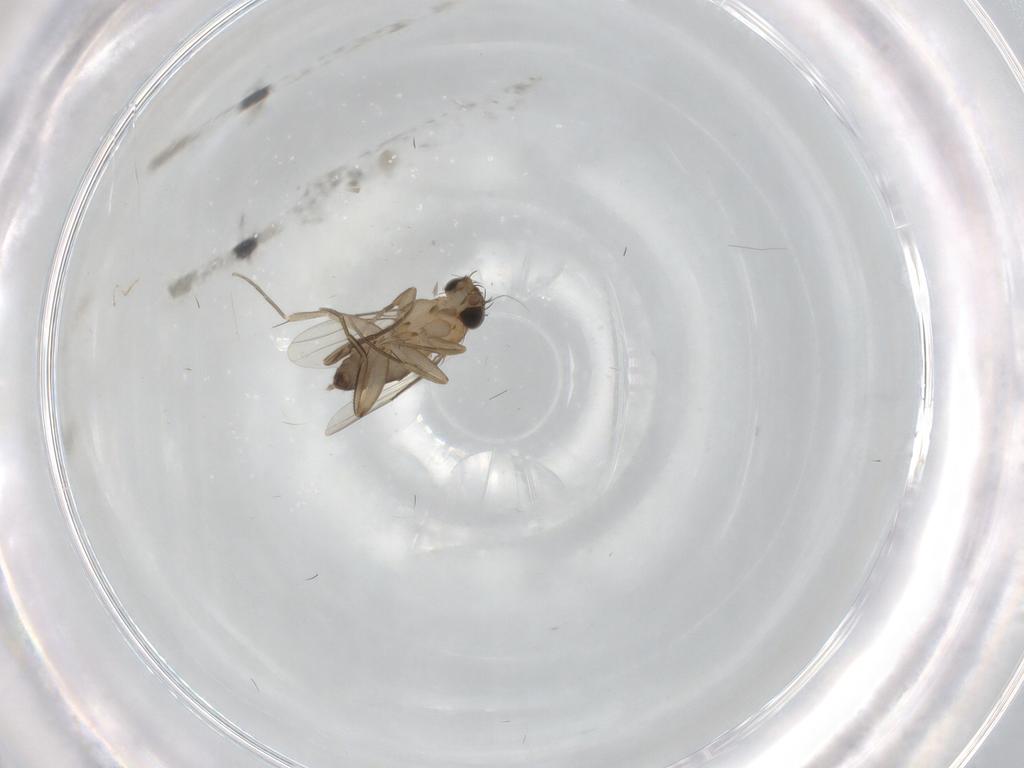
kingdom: Animalia
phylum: Arthropoda
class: Insecta
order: Diptera
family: Phoridae
